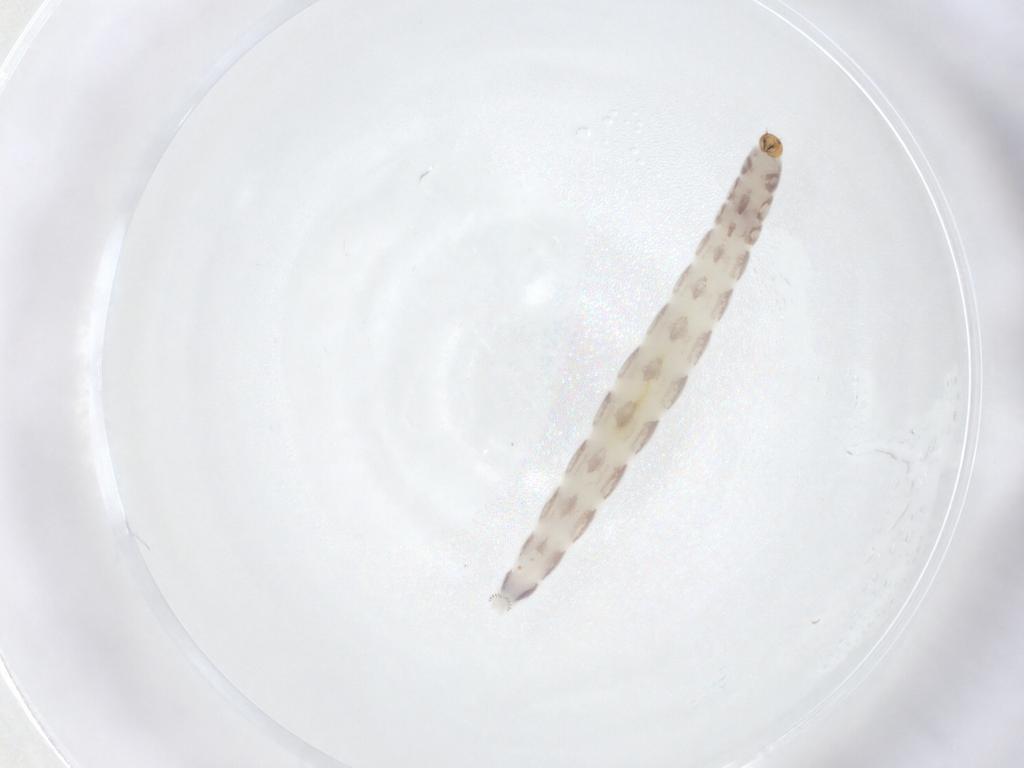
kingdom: Animalia
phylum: Arthropoda
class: Insecta
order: Diptera
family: Chironomidae
